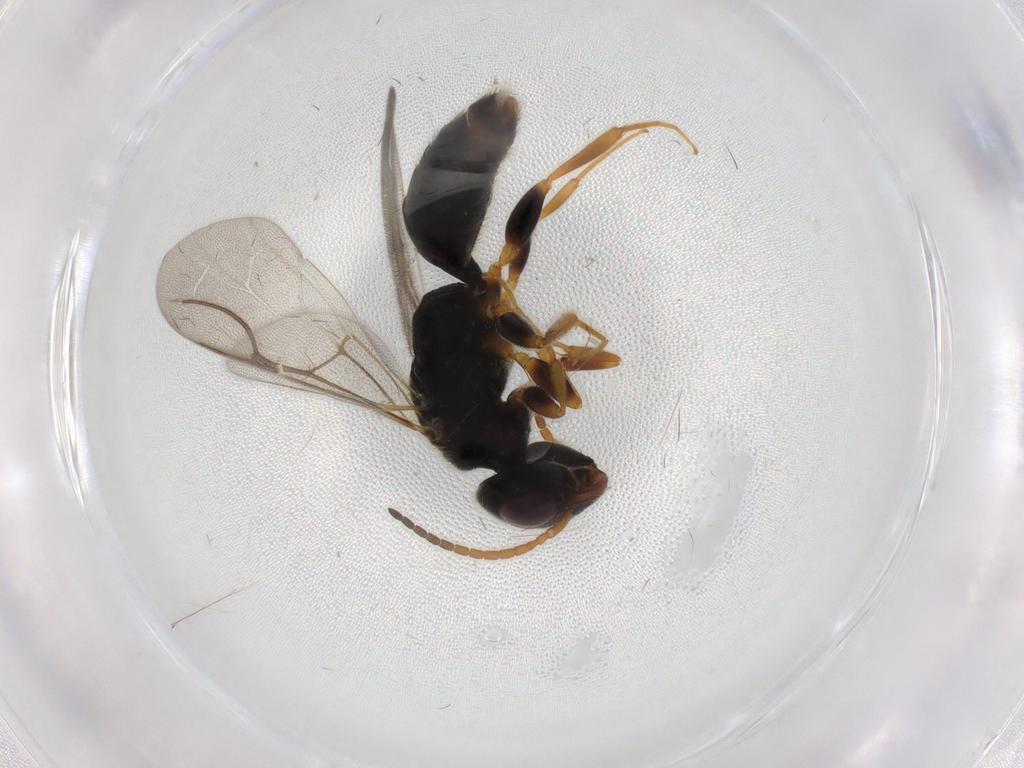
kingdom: Animalia
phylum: Arthropoda
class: Insecta
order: Hymenoptera
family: Bethylidae
